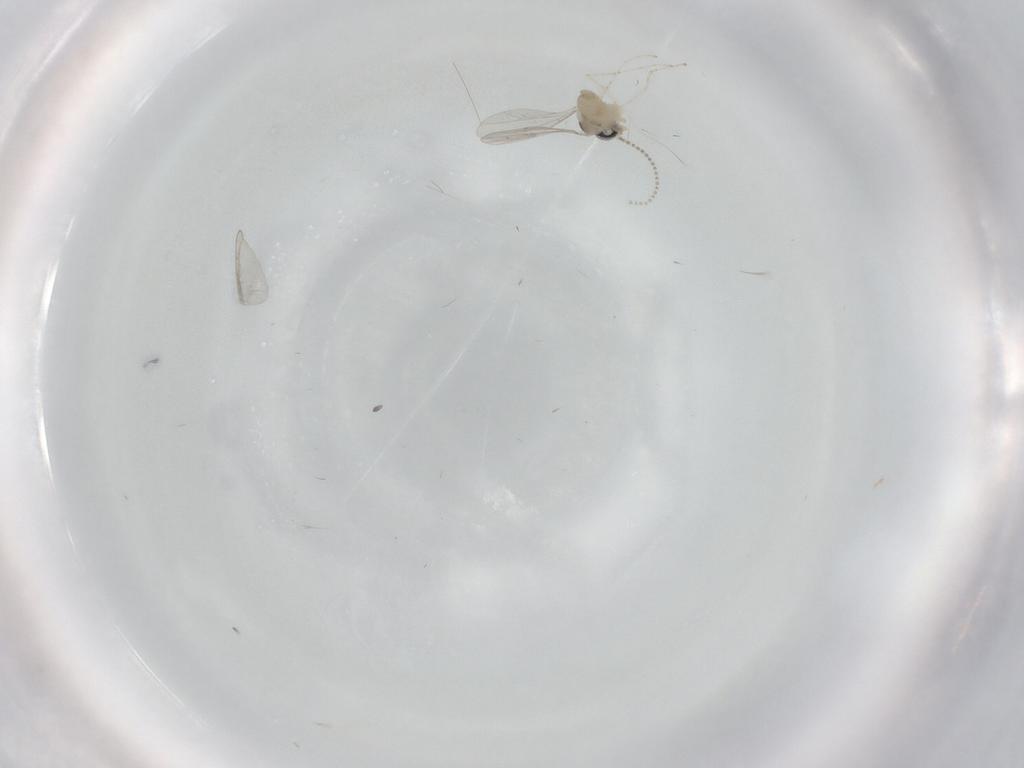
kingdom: Animalia
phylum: Arthropoda
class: Insecta
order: Diptera
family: Cecidomyiidae
